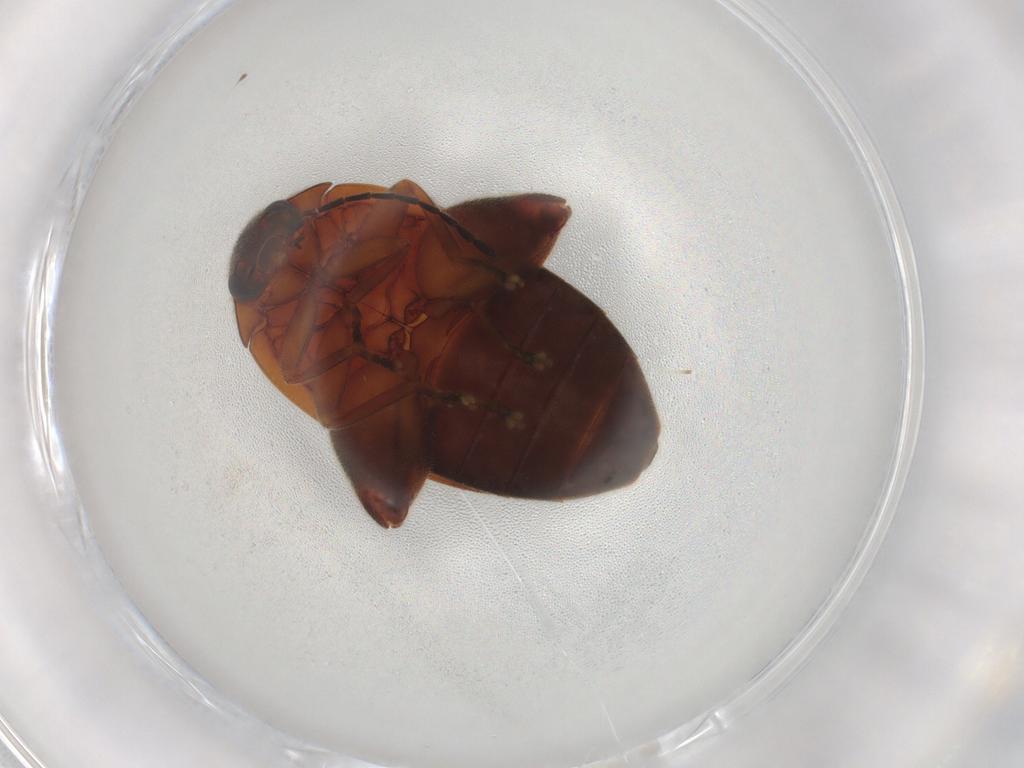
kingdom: Animalia
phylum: Arthropoda
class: Insecta
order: Coleoptera
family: Scirtidae
